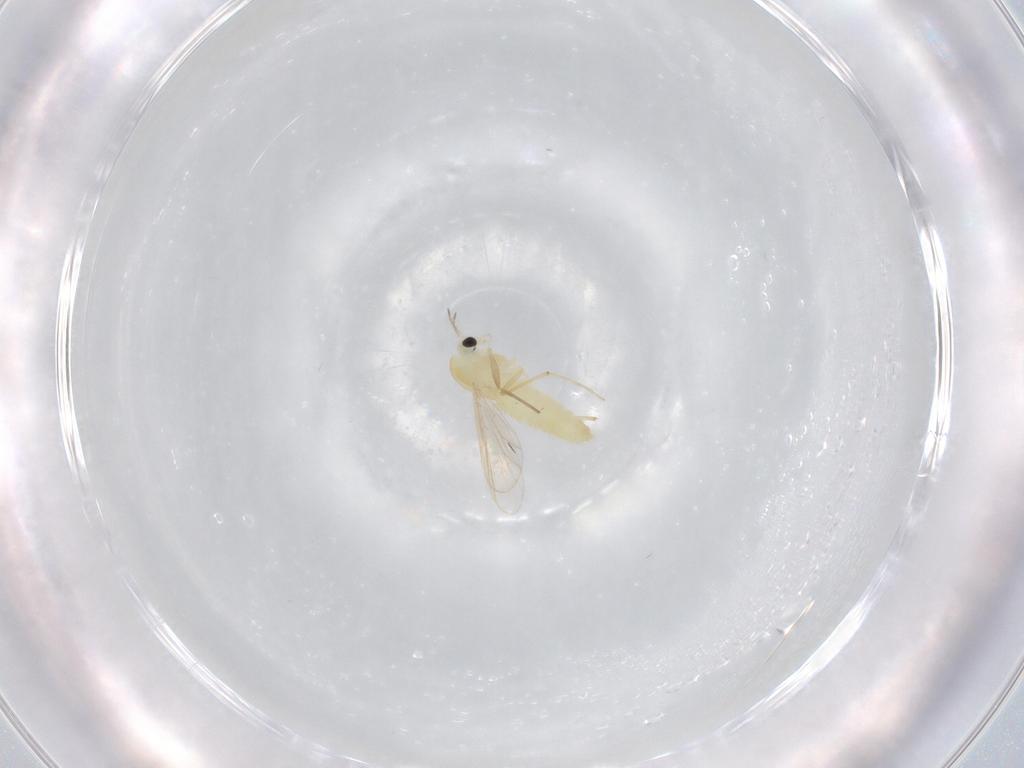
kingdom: Animalia
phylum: Arthropoda
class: Insecta
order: Diptera
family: Chironomidae
